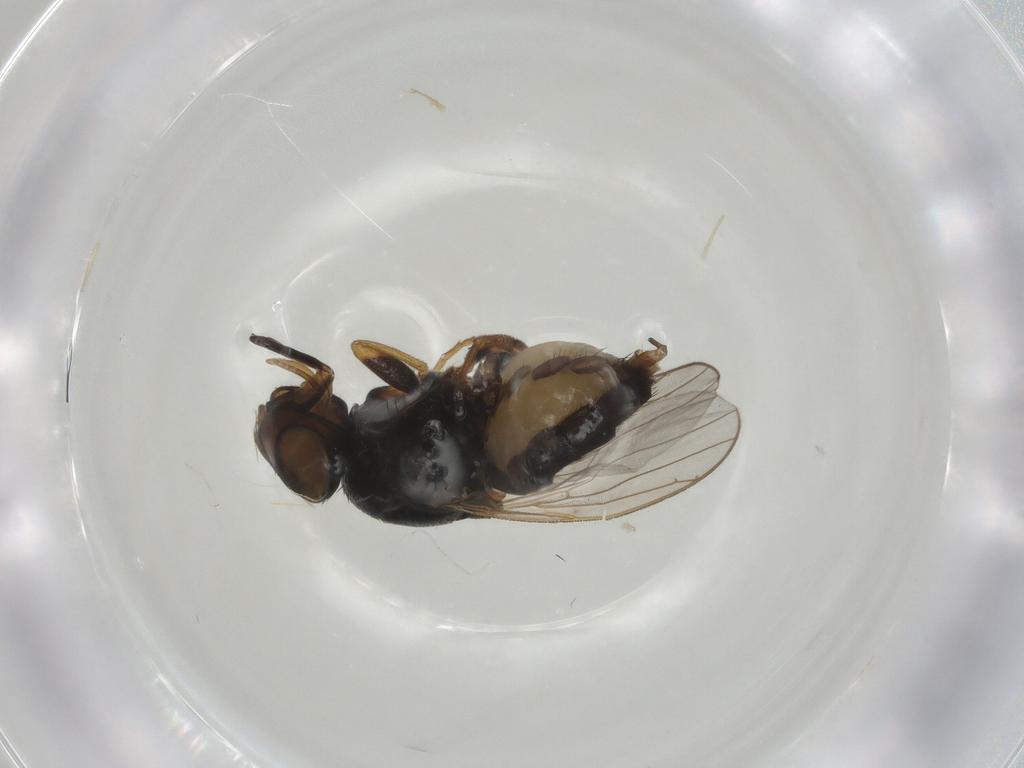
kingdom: Animalia
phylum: Arthropoda
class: Insecta
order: Diptera
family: Chloropidae
